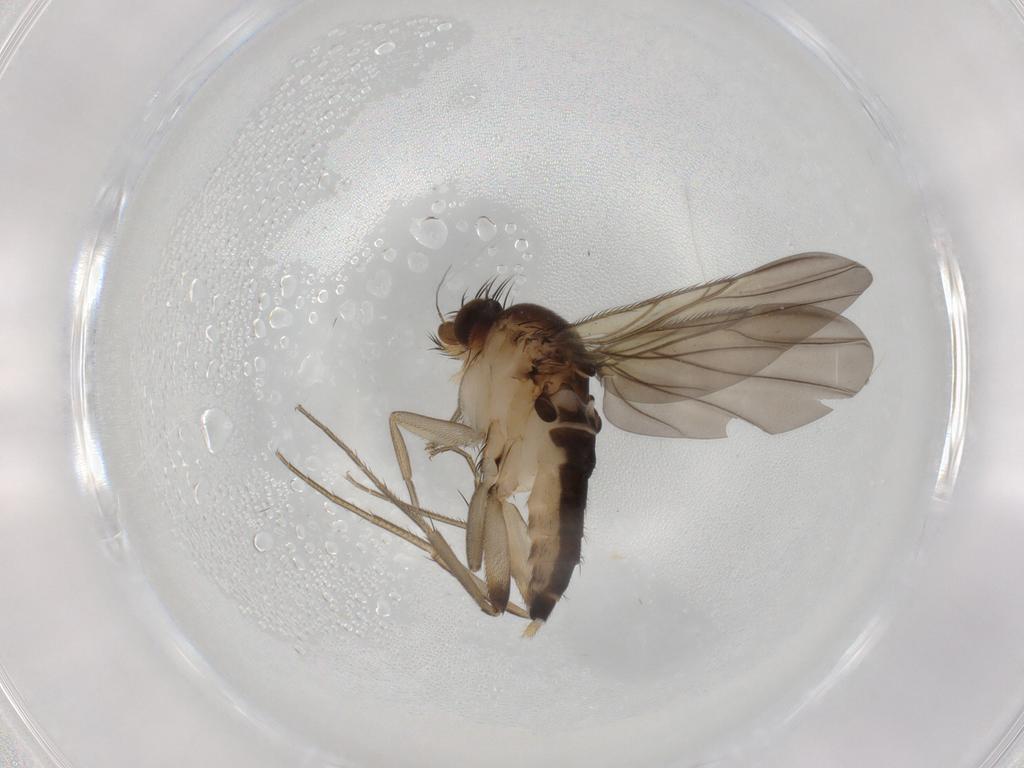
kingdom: Animalia
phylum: Arthropoda
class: Insecta
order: Diptera
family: Phoridae
